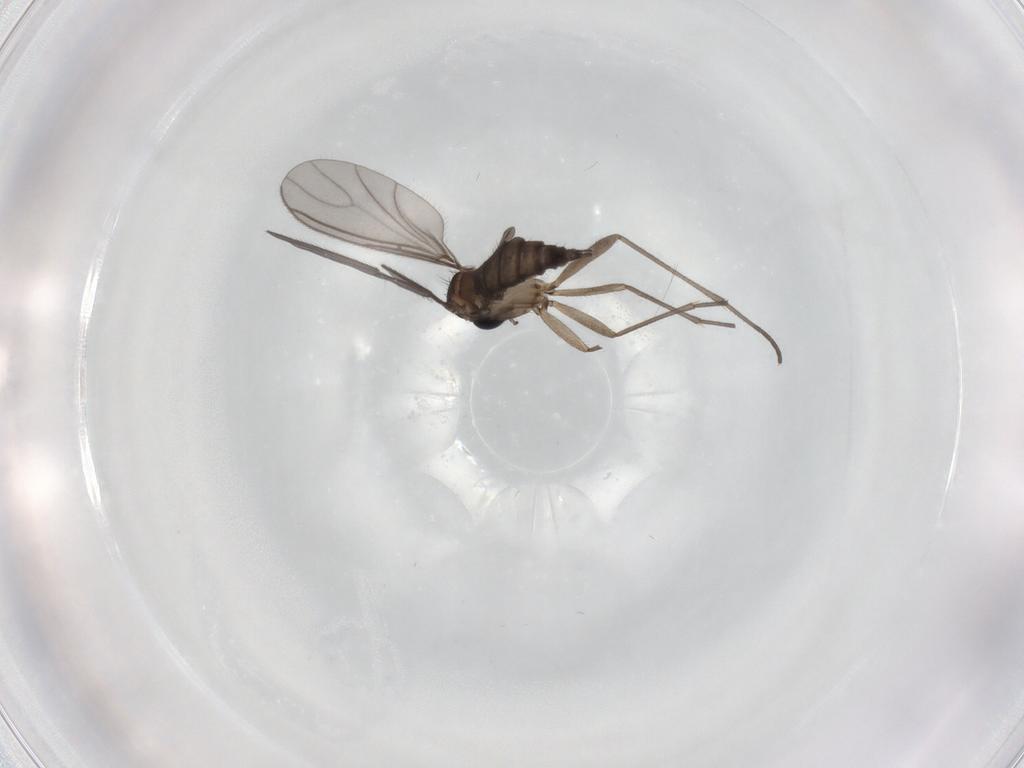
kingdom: Animalia
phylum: Arthropoda
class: Insecta
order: Diptera
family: Sciaridae
